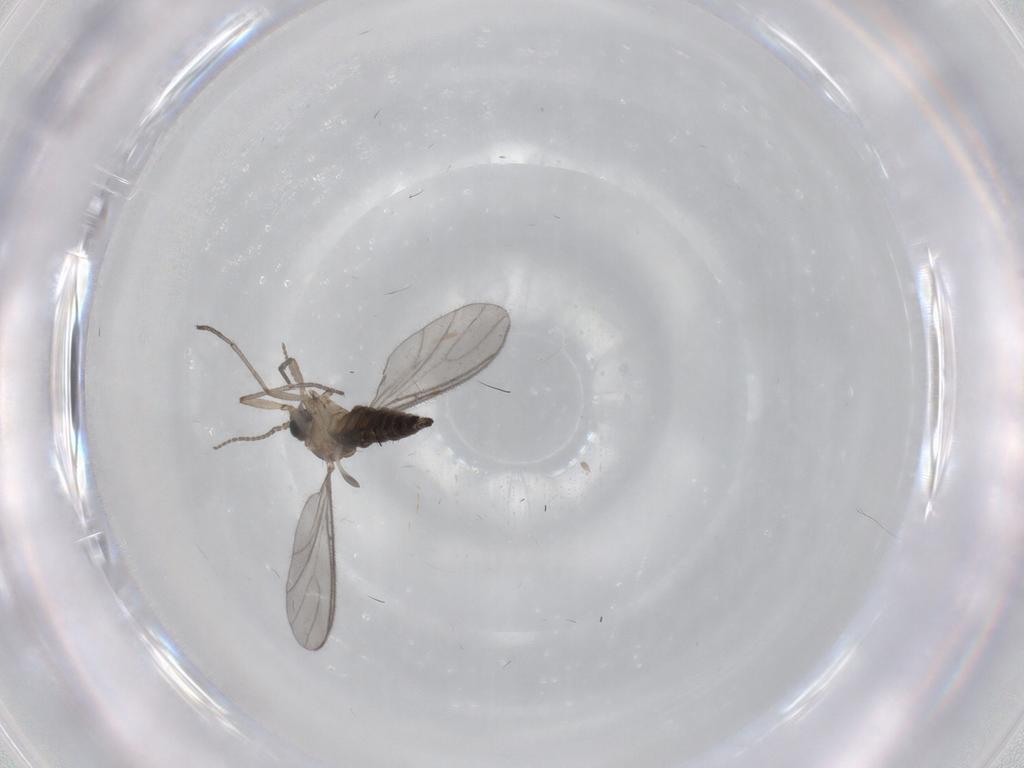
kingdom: Animalia
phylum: Arthropoda
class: Insecta
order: Diptera
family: Sciaridae
